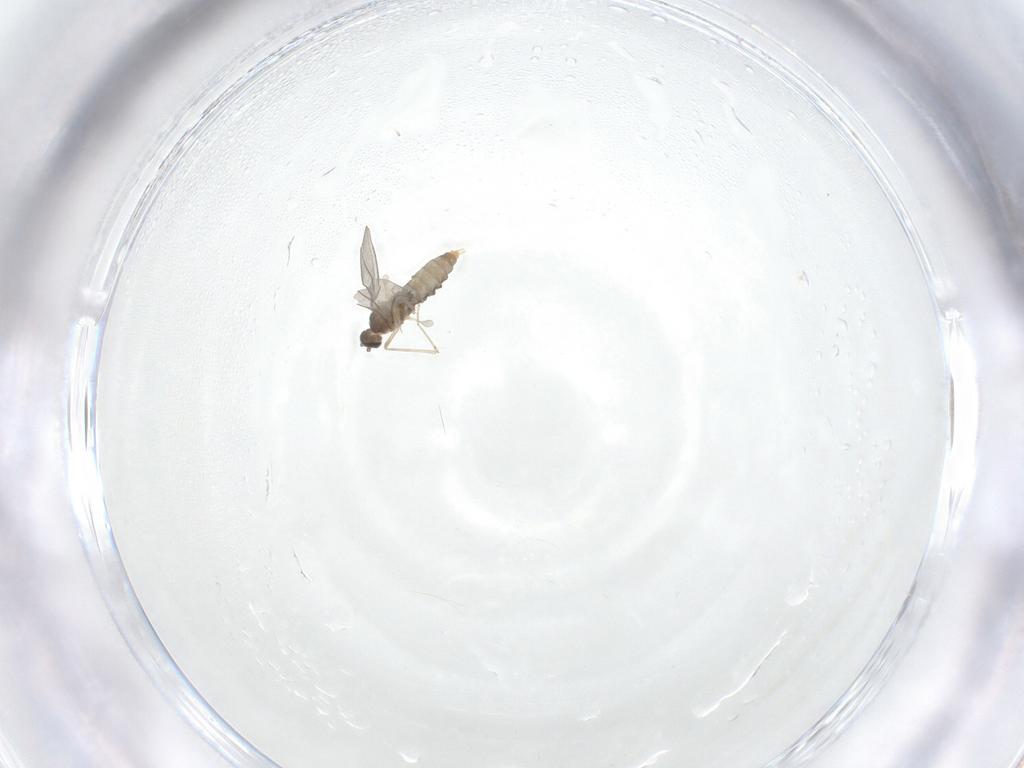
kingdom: Animalia
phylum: Arthropoda
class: Insecta
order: Diptera
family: Cecidomyiidae
